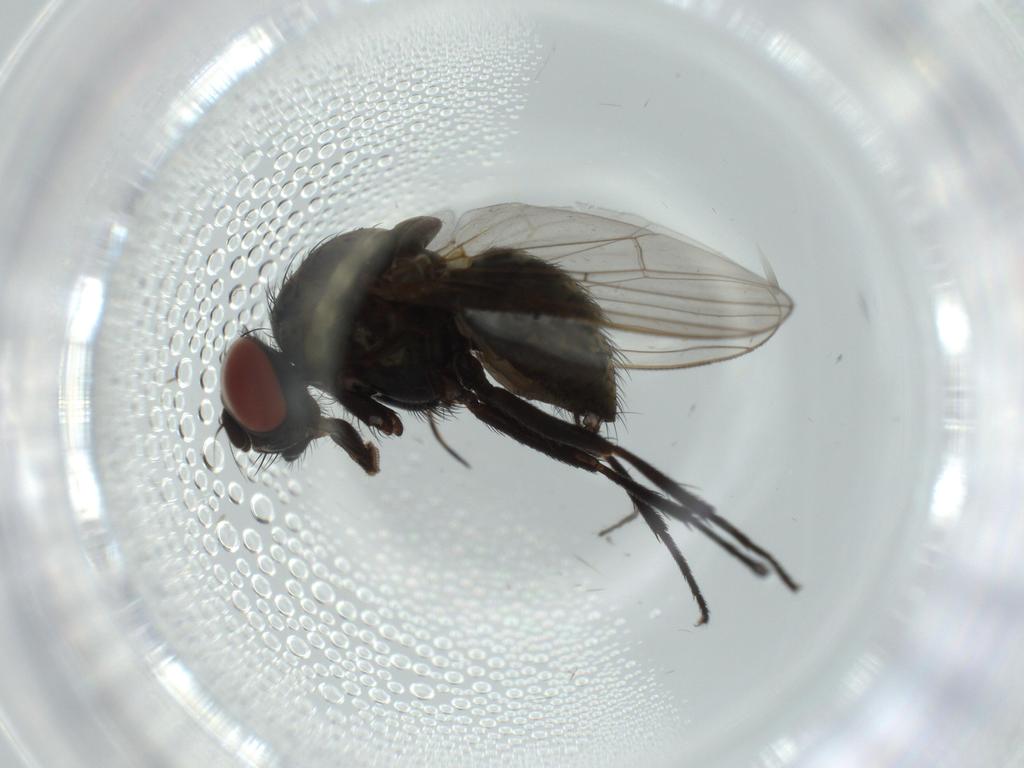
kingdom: Animalia
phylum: Arthropoda
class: Insecta
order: Diptera
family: Anthomyiidae
